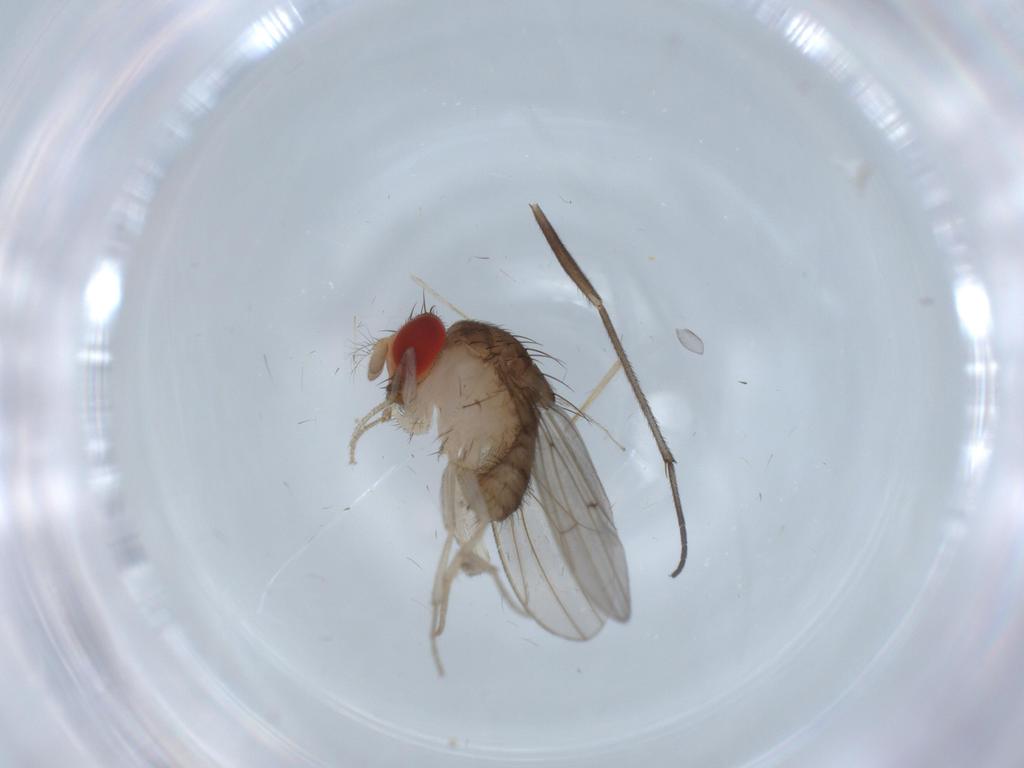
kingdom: Animalia
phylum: Arthropoda
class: Insecta
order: Diptera
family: Drosophilidae
